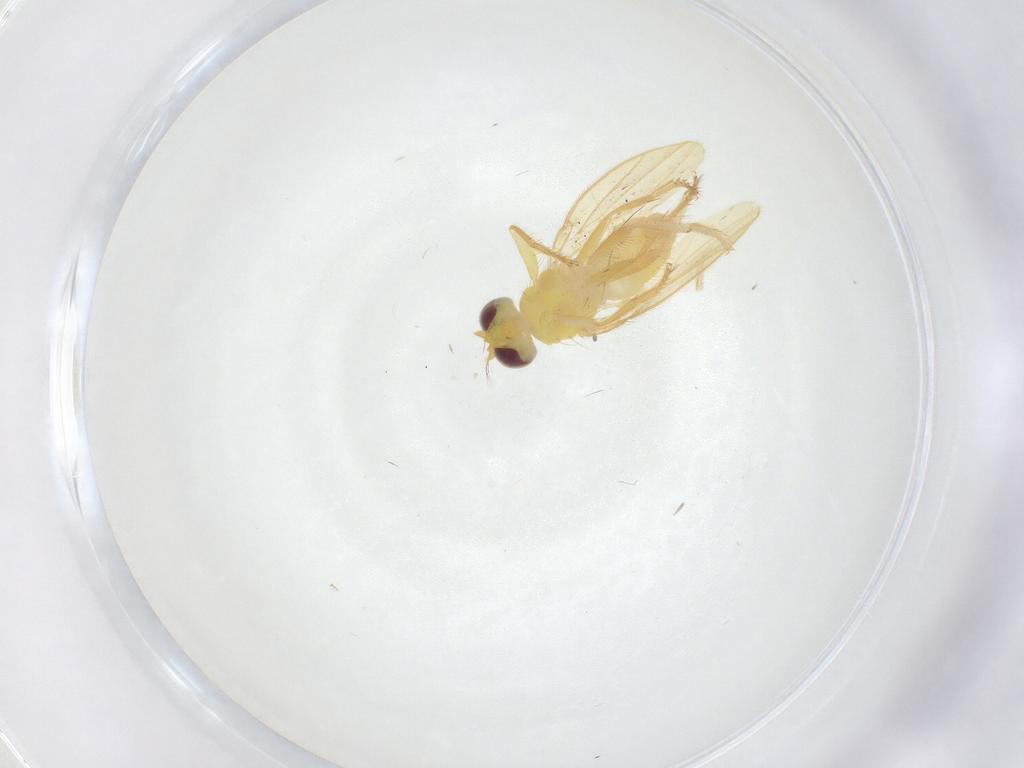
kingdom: Animalia
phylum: Arthropoda
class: Insecta
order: Diptera
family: Periscelididae
